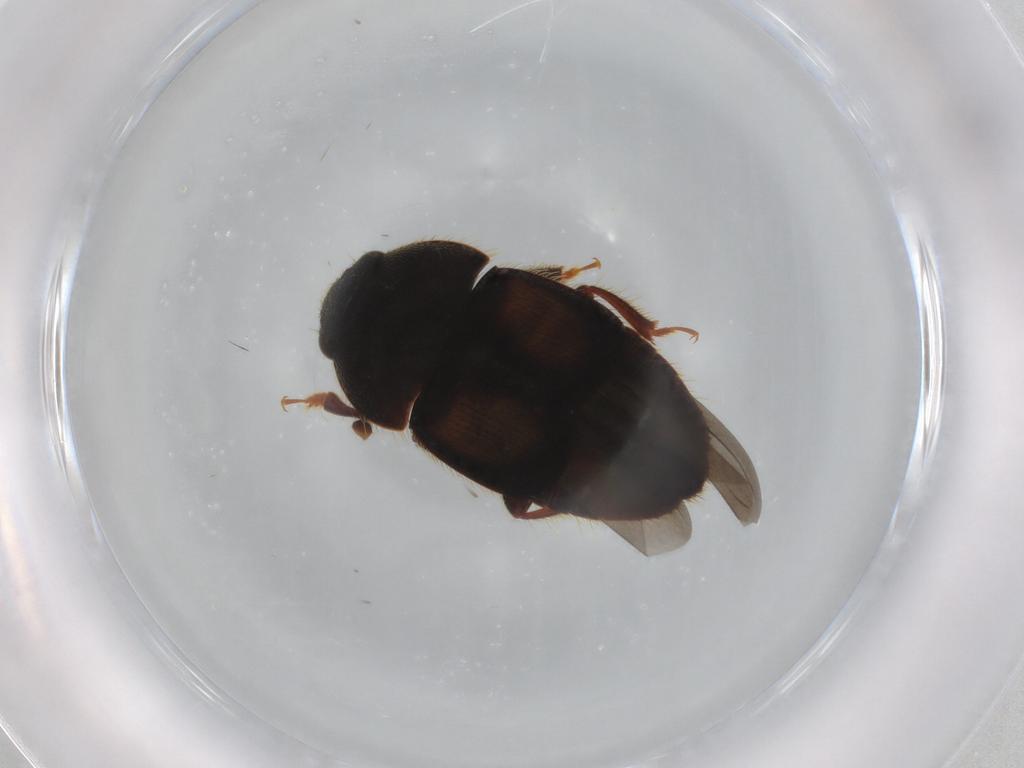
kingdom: Animalia
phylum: Arthropoda
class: Insecta
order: Coleoptera
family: Nitidulidae
